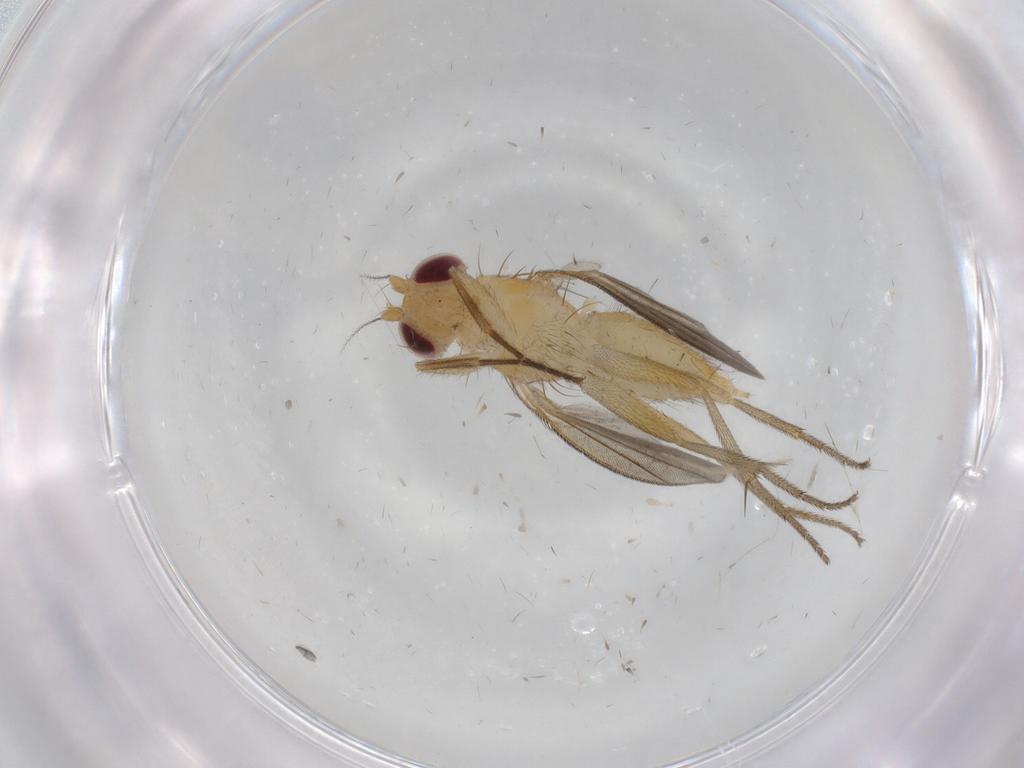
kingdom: Animalia
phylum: Arthropoda
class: Insecta
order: Diptera
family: Clusiidae
